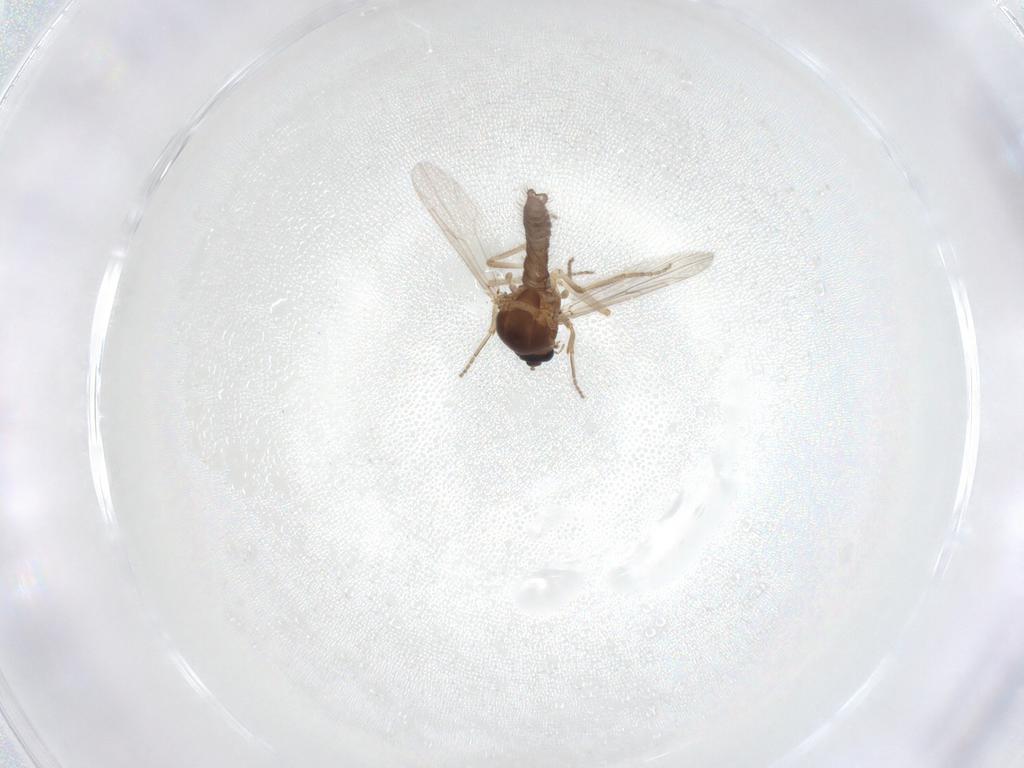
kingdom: Animalia
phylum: Arthropoda
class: Insecta
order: Diptera
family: Ceratopogonidae
